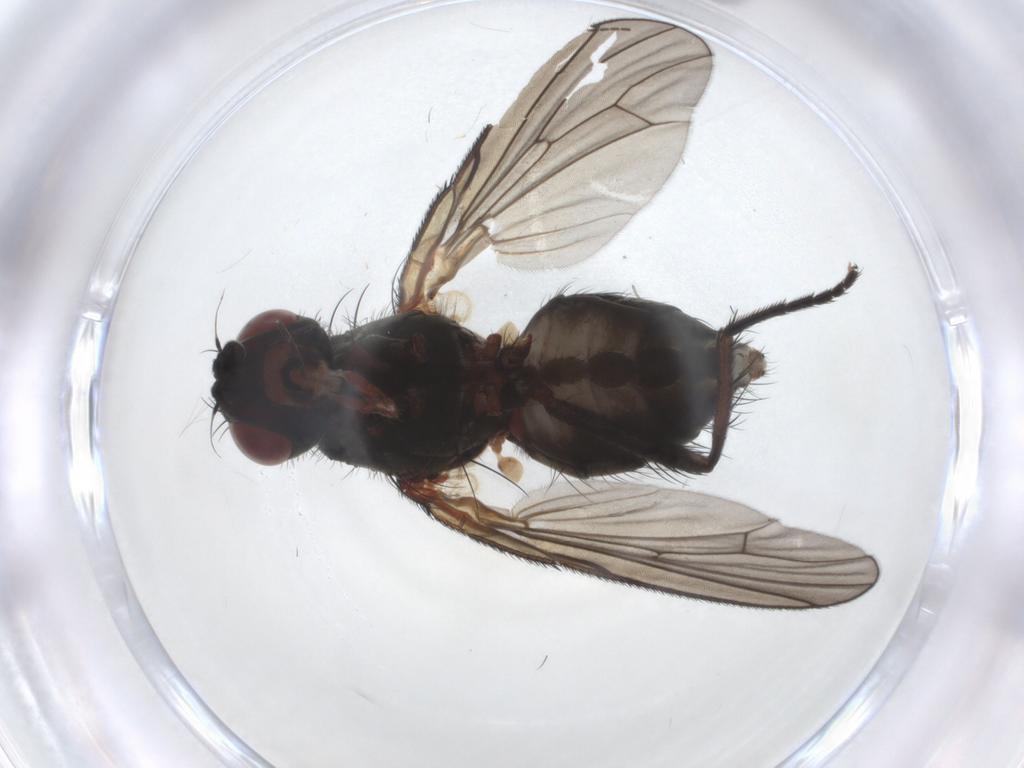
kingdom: Animalia
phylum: Arthropoda
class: Insecta
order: Diptera
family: Anthomyiidae
